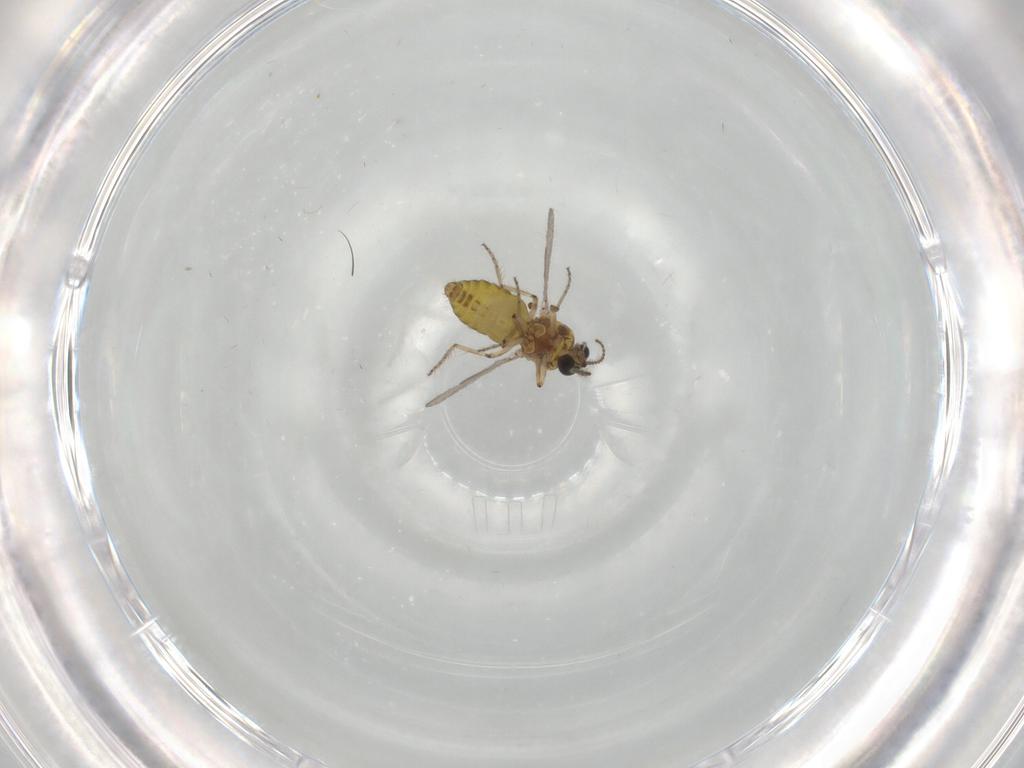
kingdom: Animalia
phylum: Arthropoda
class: Insecta
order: Diptera
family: Ceratopogonidae
